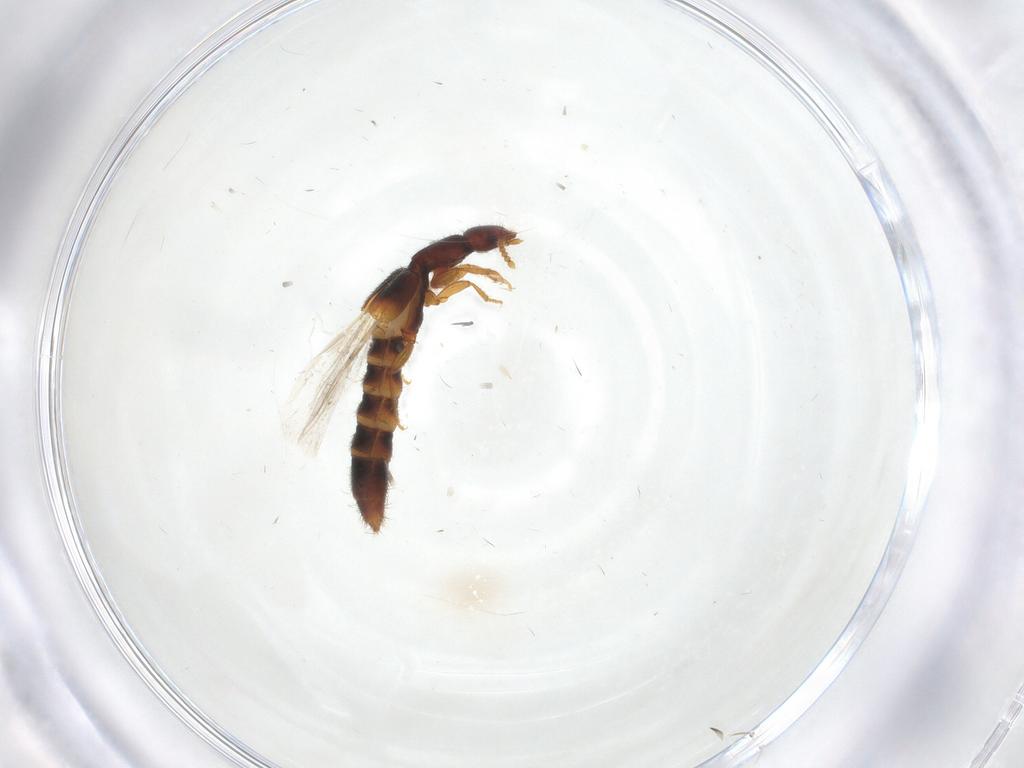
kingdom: Animalia
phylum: Arthropoda
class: Insecta
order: Coleoptera
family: Staphylinidae
